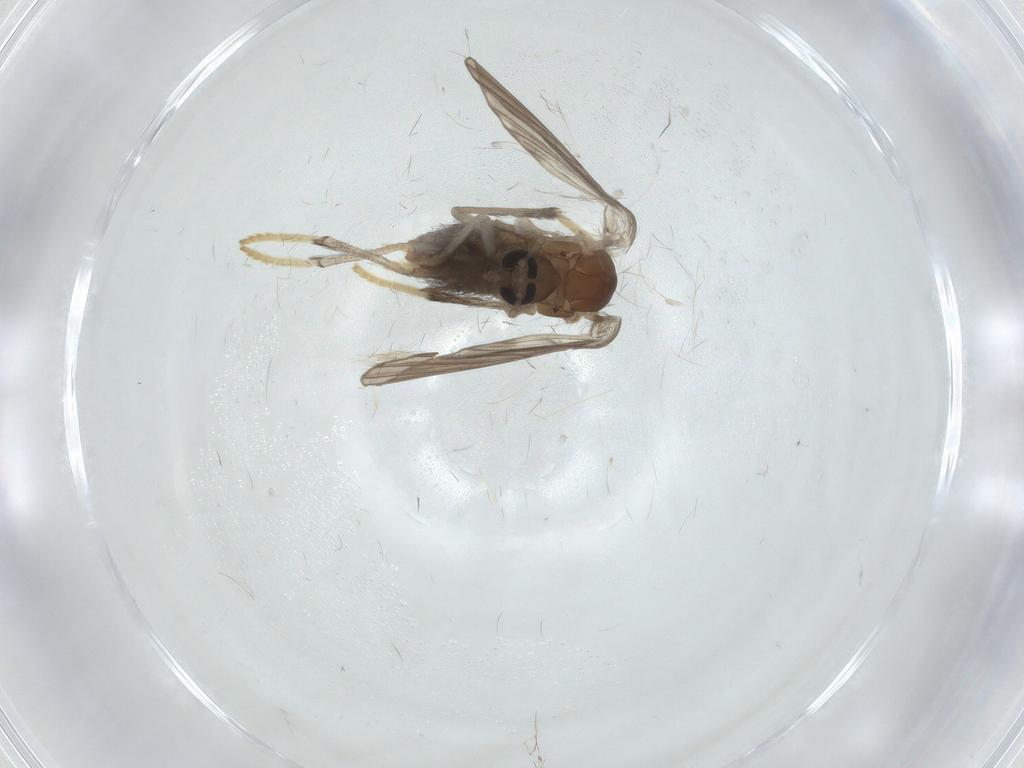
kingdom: Animalia
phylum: Arthropoda
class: Insecta
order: Diptera
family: Psychodidae
